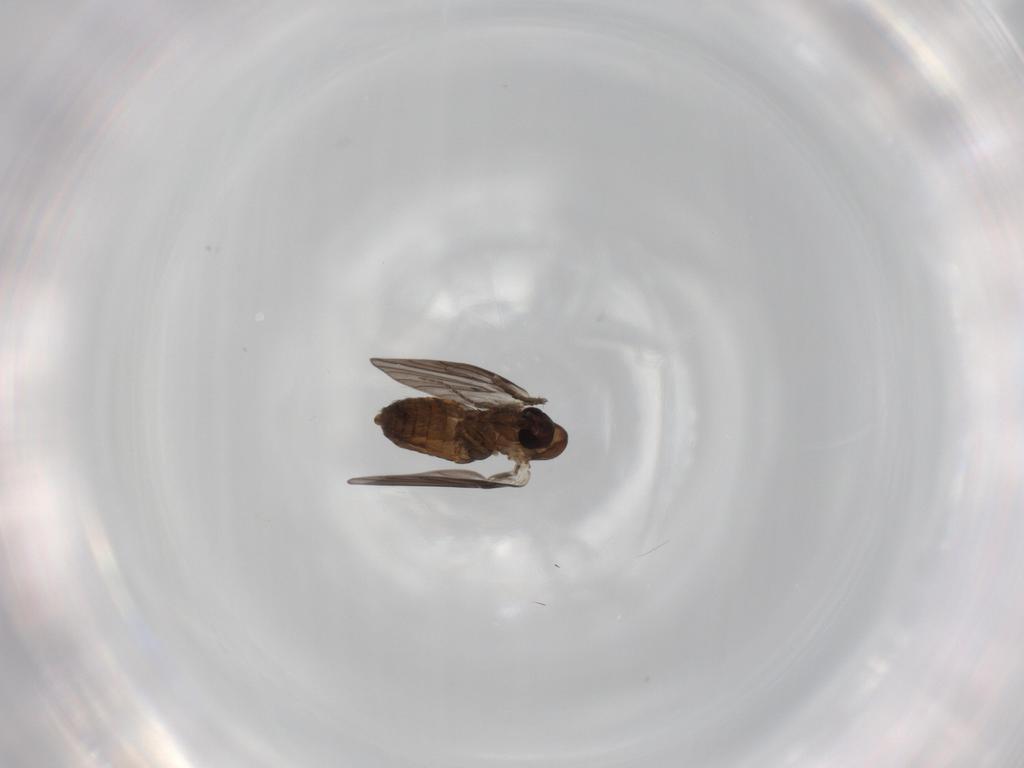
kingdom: Animalia
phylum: Arthropoda
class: Insecta
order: Diptera
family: Psychodidae
